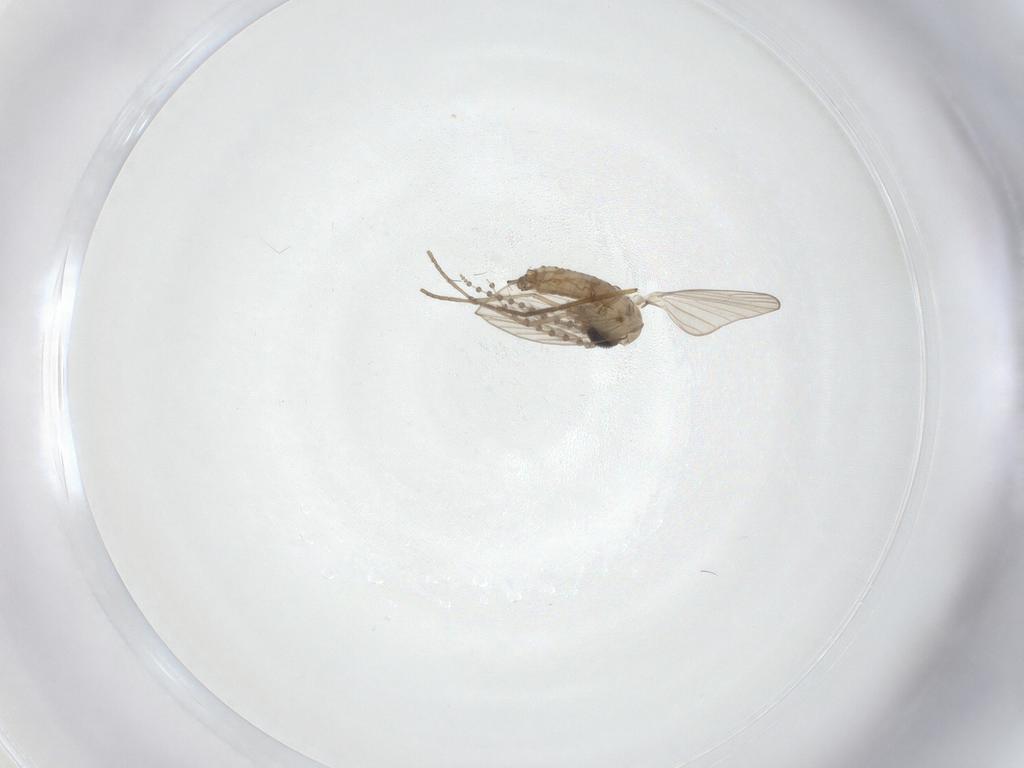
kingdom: Animalia
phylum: Arthropoda
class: Insecta
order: Diptera
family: Psychodidae
